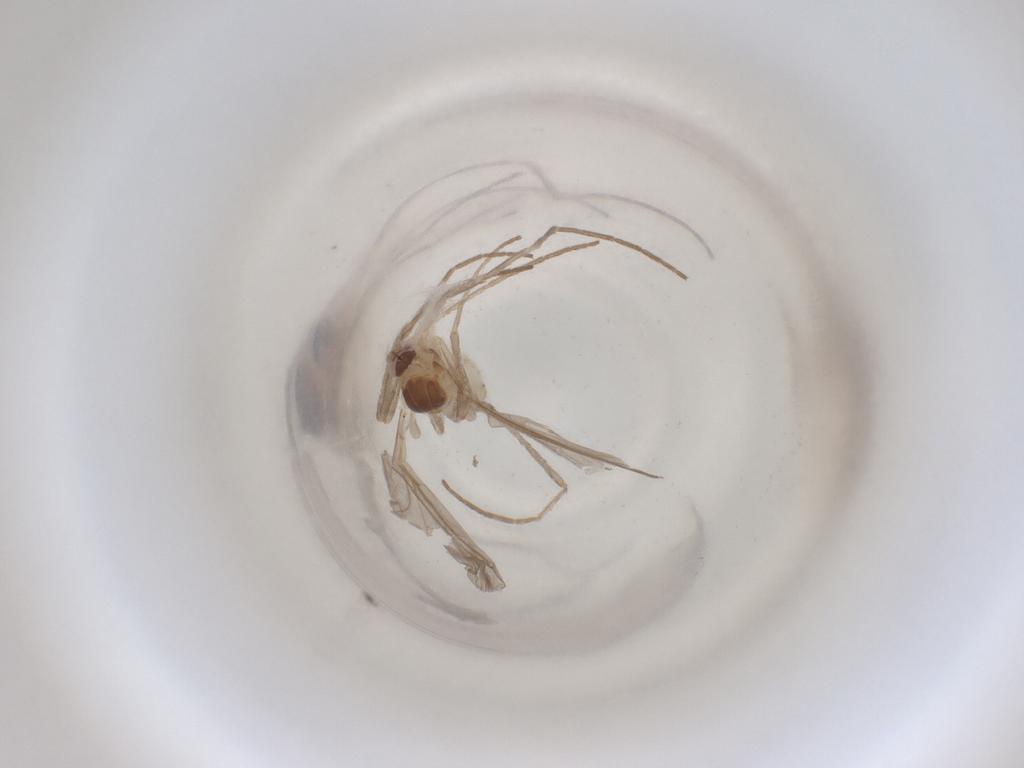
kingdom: Animalia
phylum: Arthropoda
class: Insecta
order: Diptera
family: Cecidomyiidae
